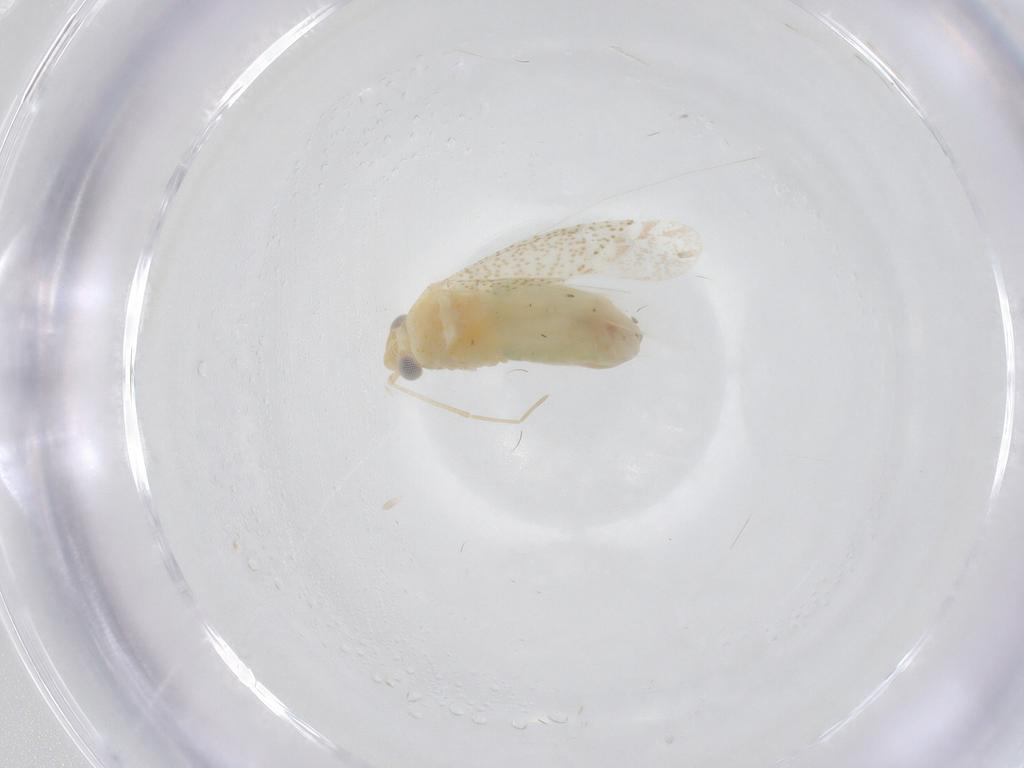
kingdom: Animalia
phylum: Arthropoda
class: Insecta
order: Hemiptera
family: Miridae
